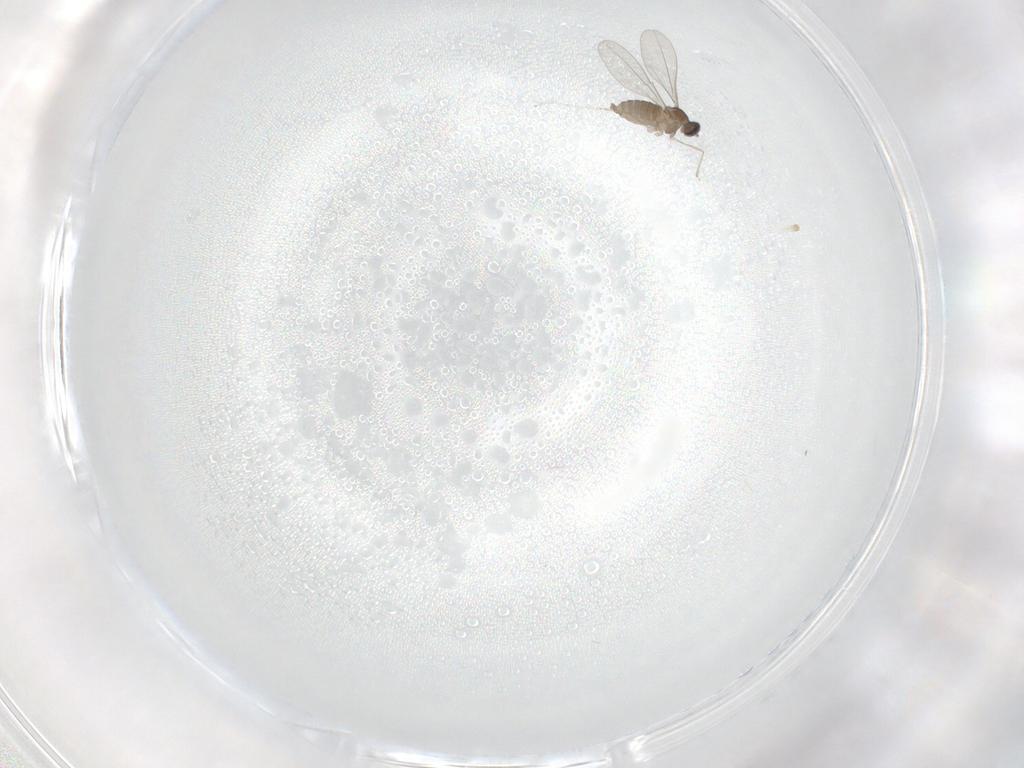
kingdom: Animalia
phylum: Arthropoda
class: Insecta
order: Diptera
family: Cecidomyiidae
